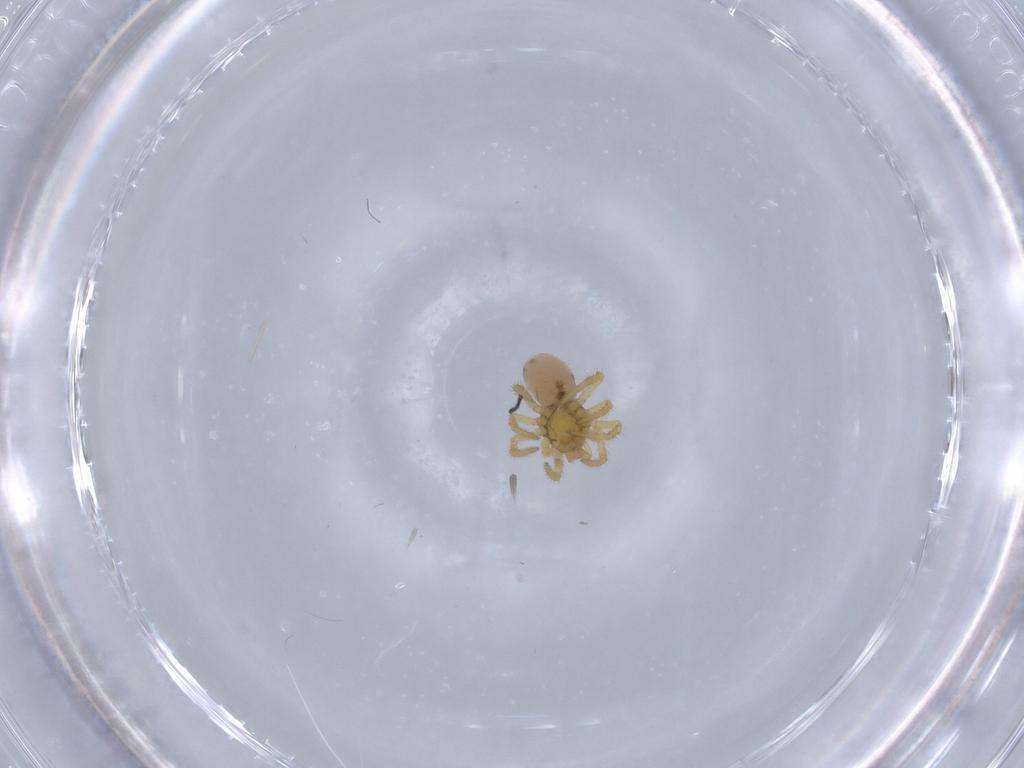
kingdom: Animalia
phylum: Arthropoda
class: Arachnida
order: Araneae
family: Theridiidae
